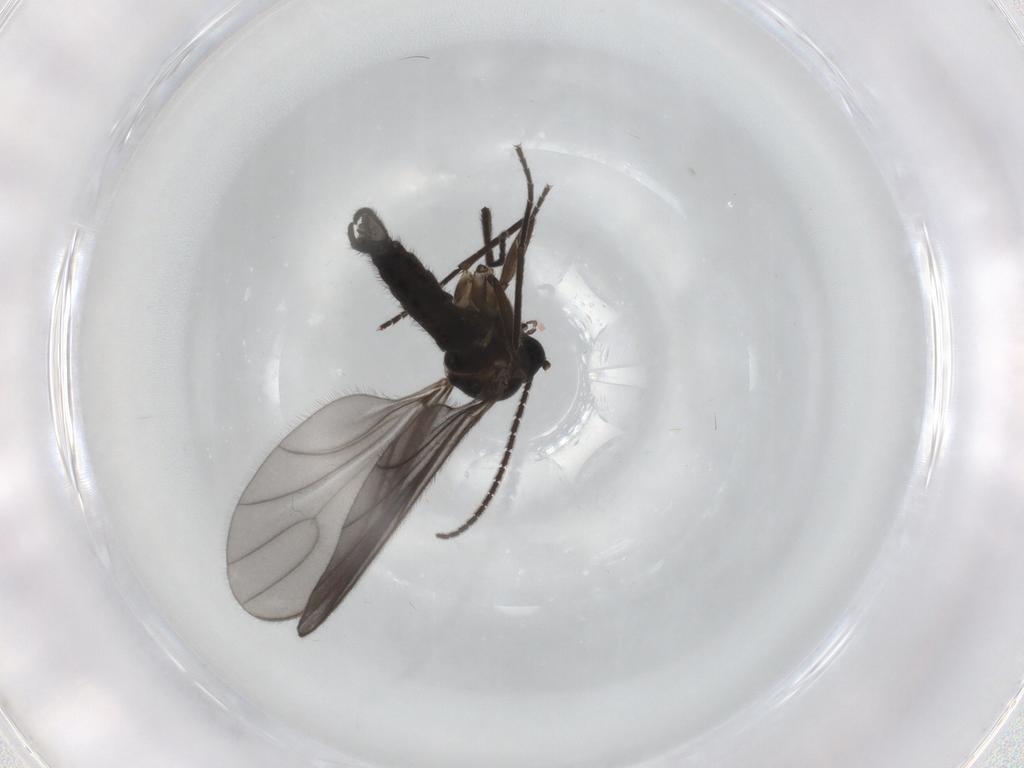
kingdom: Animalia
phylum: Arthropoda
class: Insecta
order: Diptera
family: Sciaridae
